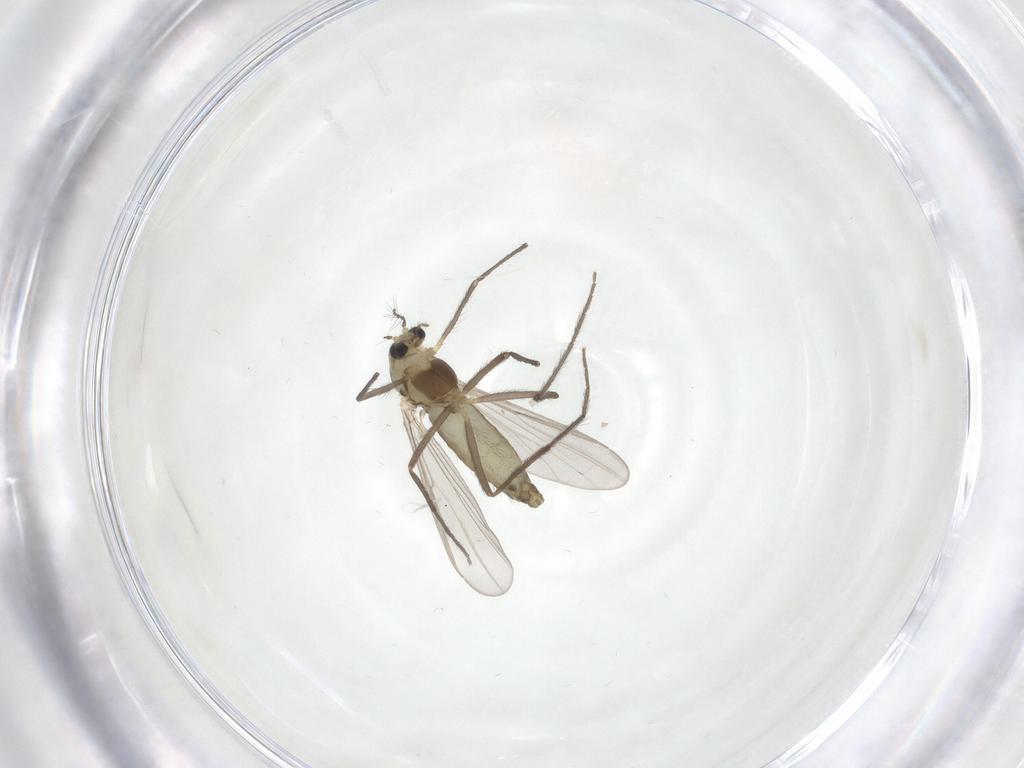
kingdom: Animalia
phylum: Arthropoda
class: Insecta
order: Diptera
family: Chironomidae
